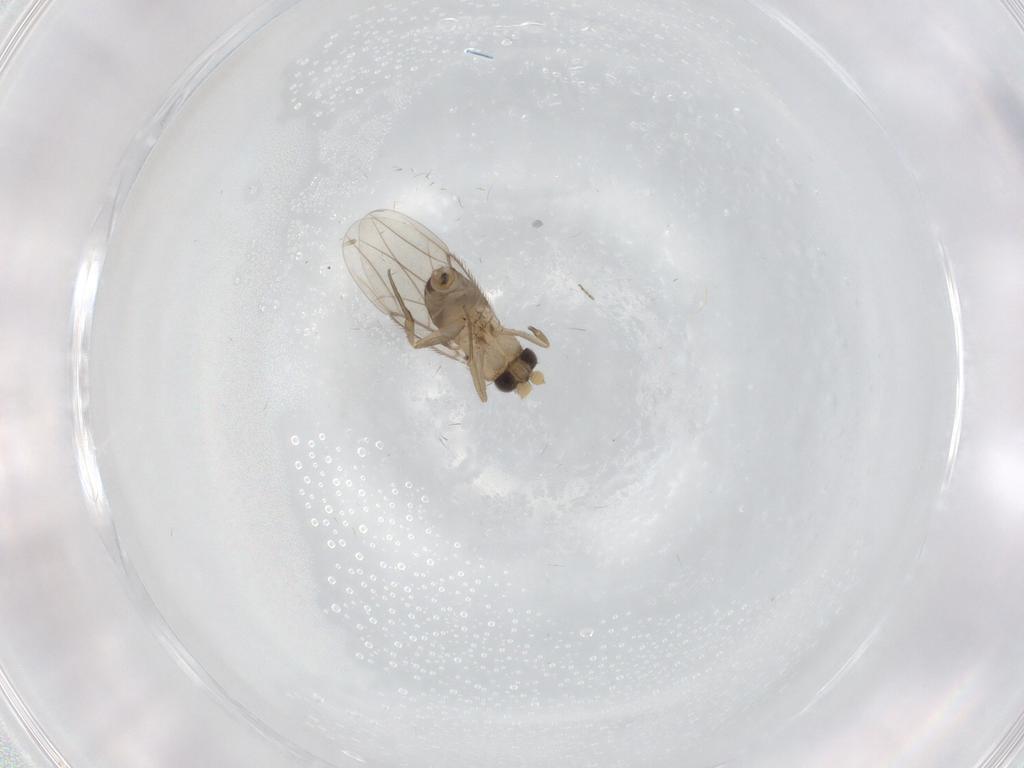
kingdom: Animalia
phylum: Arthropoda
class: Insecta
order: Diptera
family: Phoridae
